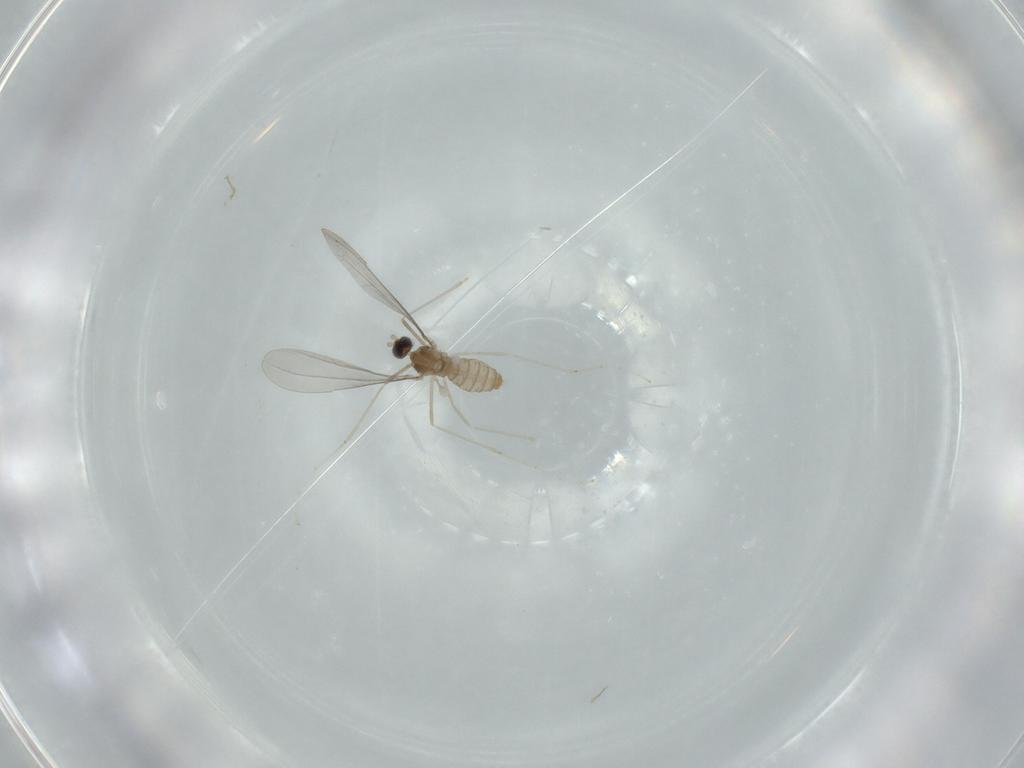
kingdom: Animalia
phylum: Arthropoda
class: Insecta
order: Diptera
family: Cecidomyiidae
